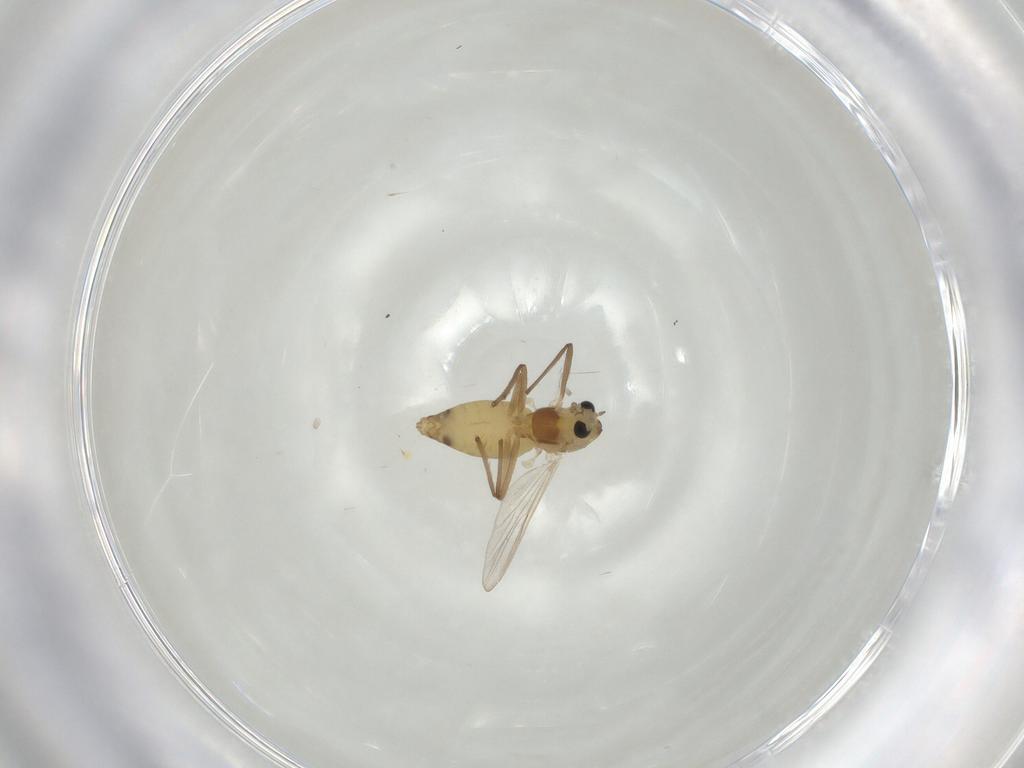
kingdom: Animalia
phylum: Arthropoda
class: Insecta
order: Diptera
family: Chironomidae
